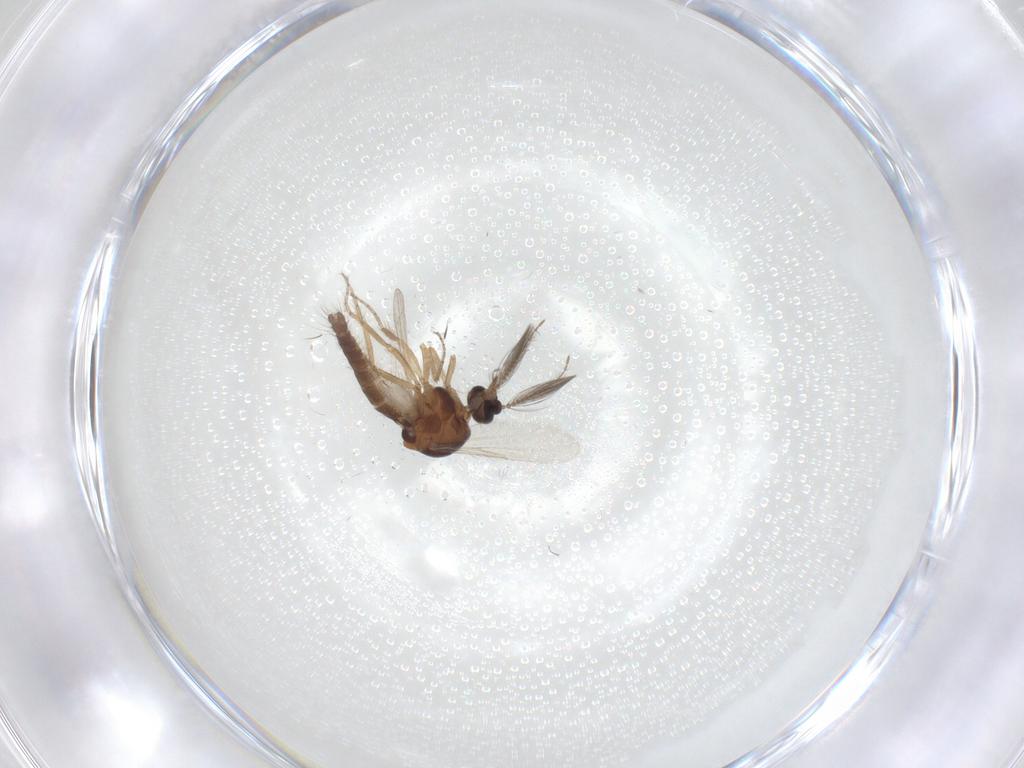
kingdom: Animalia
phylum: Arthropoda
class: Insecta
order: Diptera
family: Ceratopogonidae
